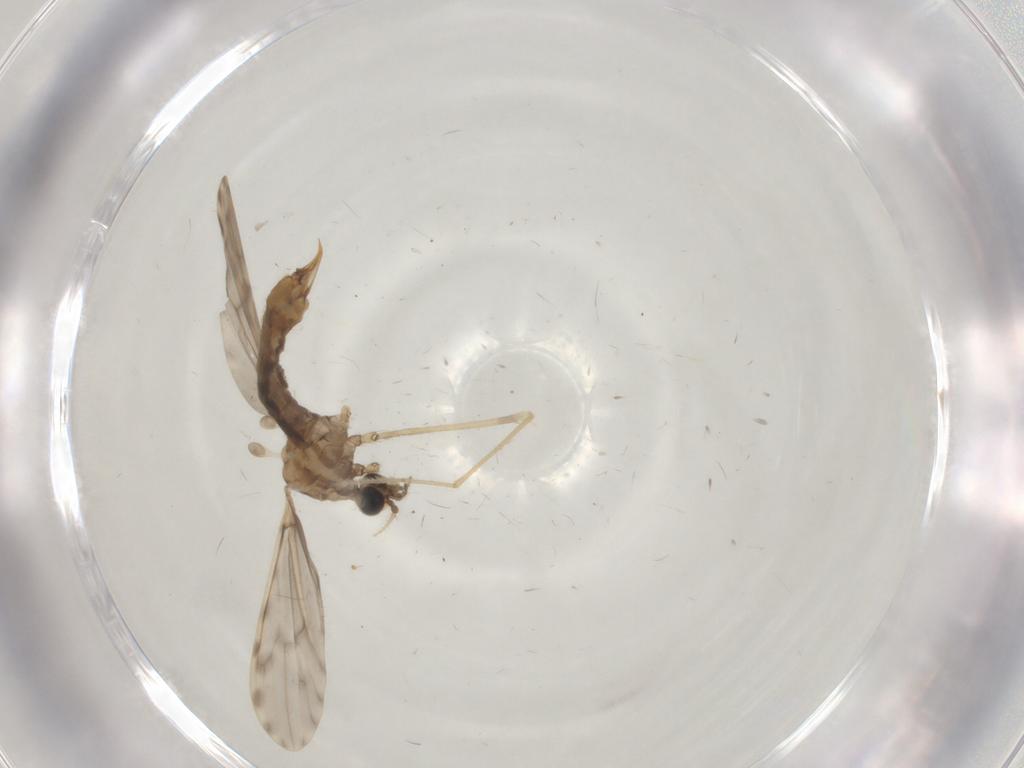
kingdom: Animalia
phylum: Arthropoda
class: Insecta
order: Diptera
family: Limoniidae
